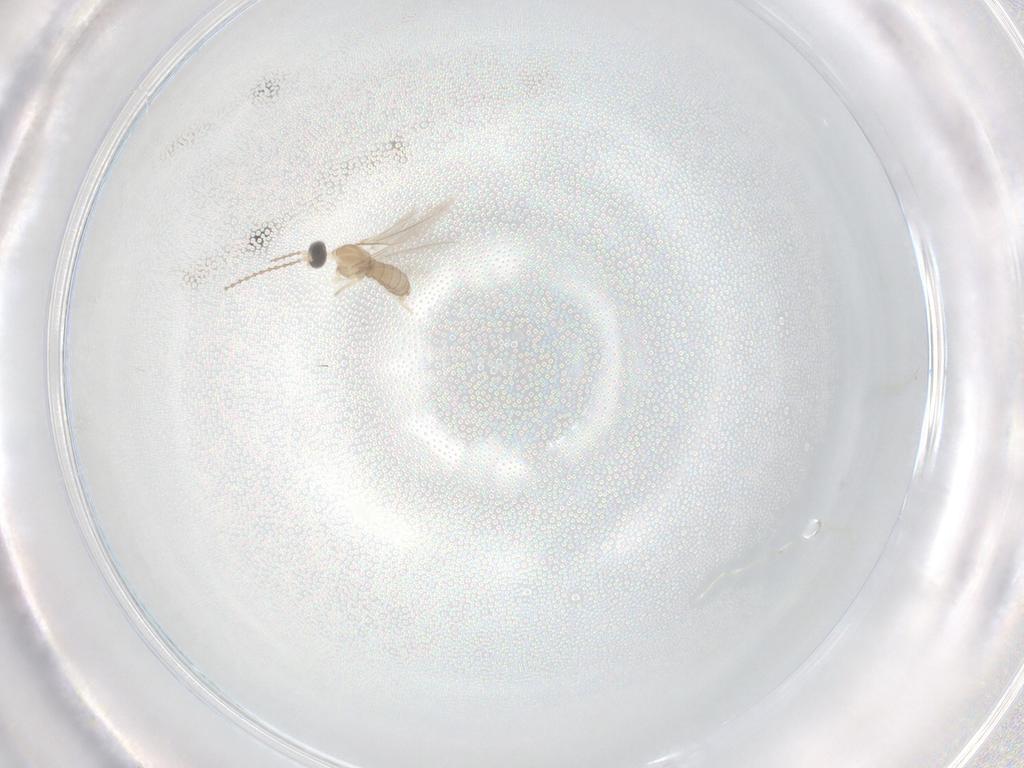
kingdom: Animalia
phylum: Arthropoda
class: Insecta
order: Diptera
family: Cecidomyiidae
